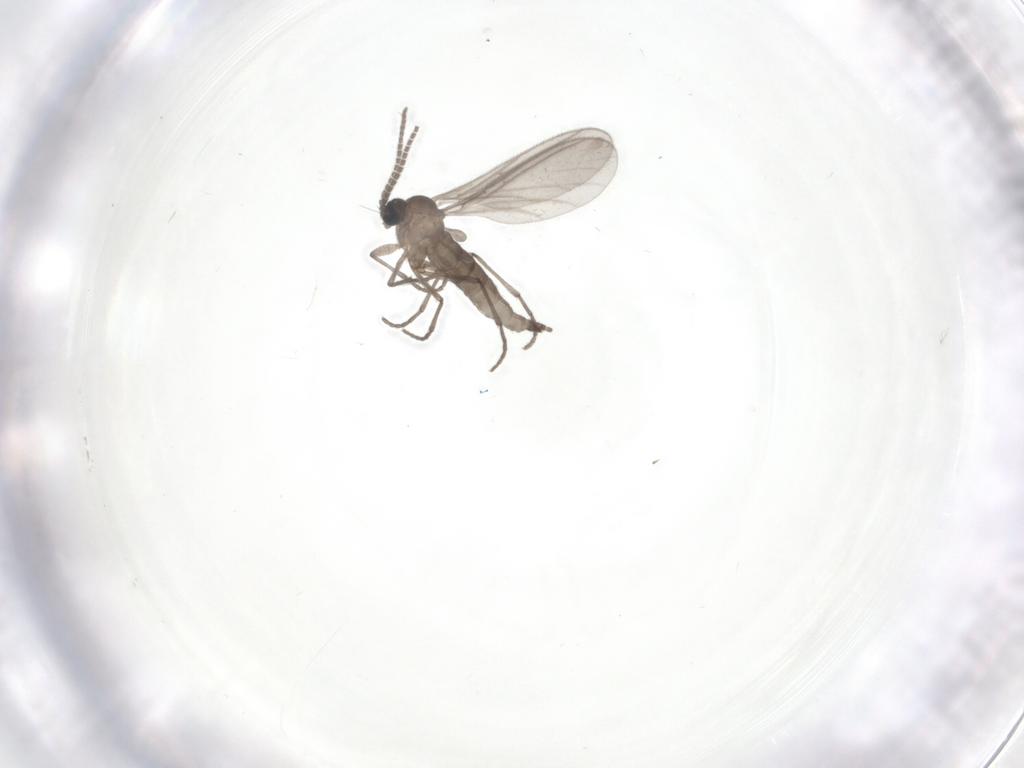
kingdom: Animalia
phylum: Arthropoda
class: Insecta
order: Diptera
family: Sciaridae
